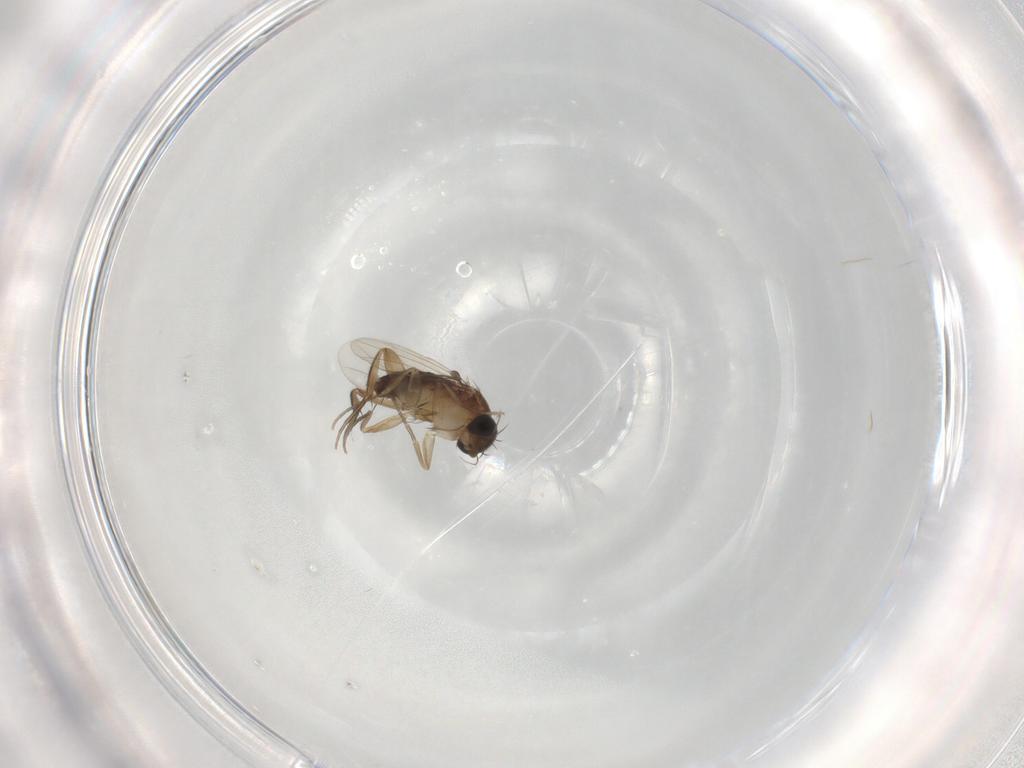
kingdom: Animalia
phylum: Arthropoda
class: Insecta
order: Diptera
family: Phoridae
